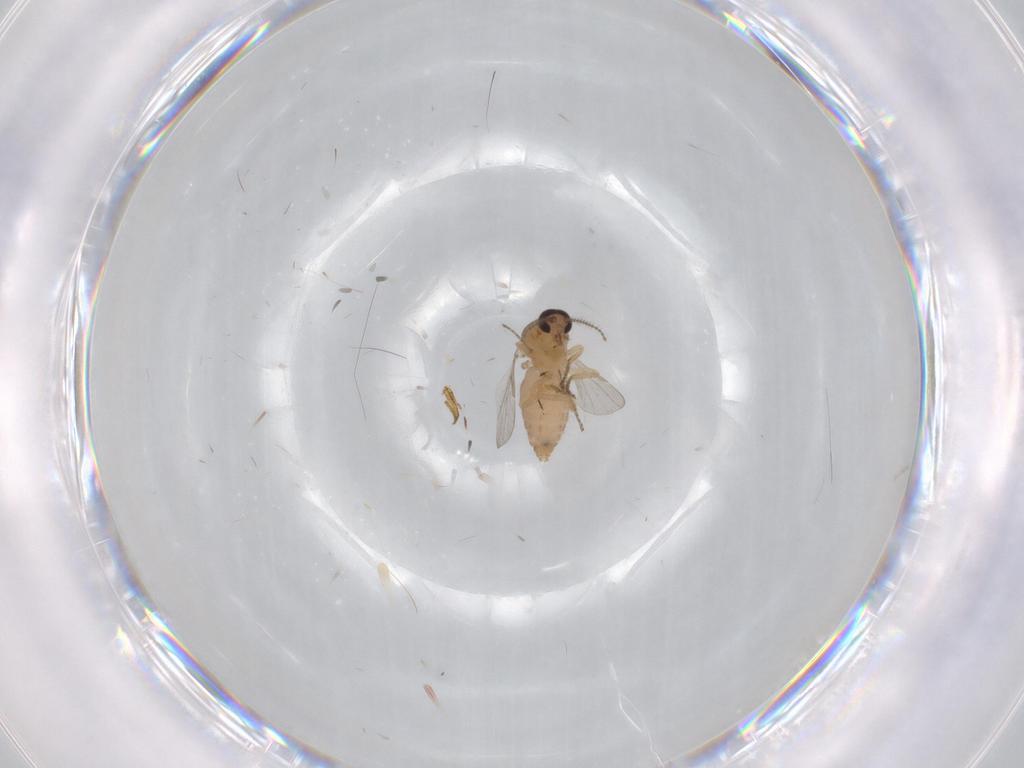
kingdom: Animalia
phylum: Arthropoda
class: Insecta
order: Diptera
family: Ceratopogonidae
